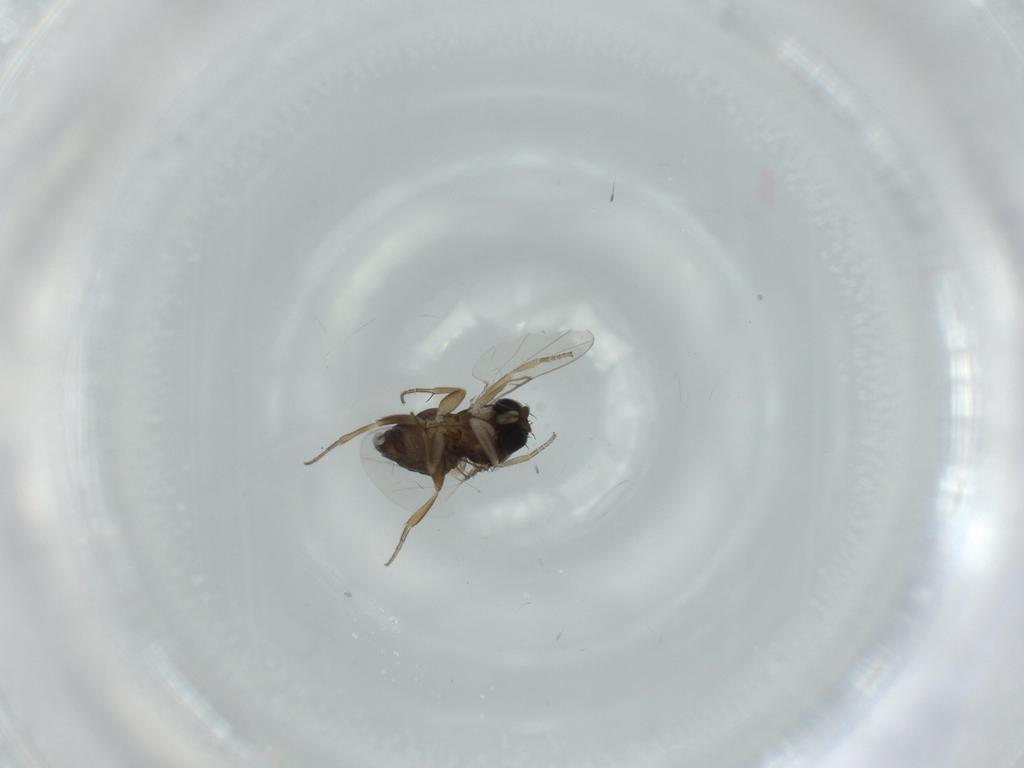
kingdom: Animalia
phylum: Arthropoda
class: Insecta
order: Diptera
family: Phoridae
